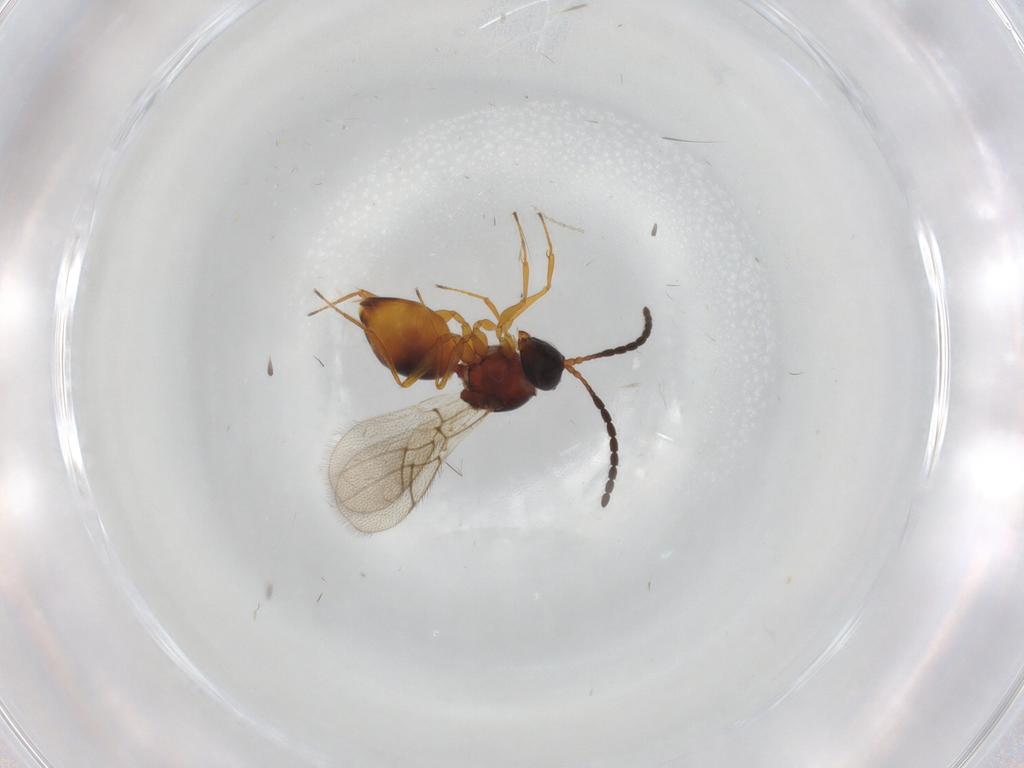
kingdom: Animalia
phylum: Arthropoda
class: Insecta
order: Hymenoptera
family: Figitidae
